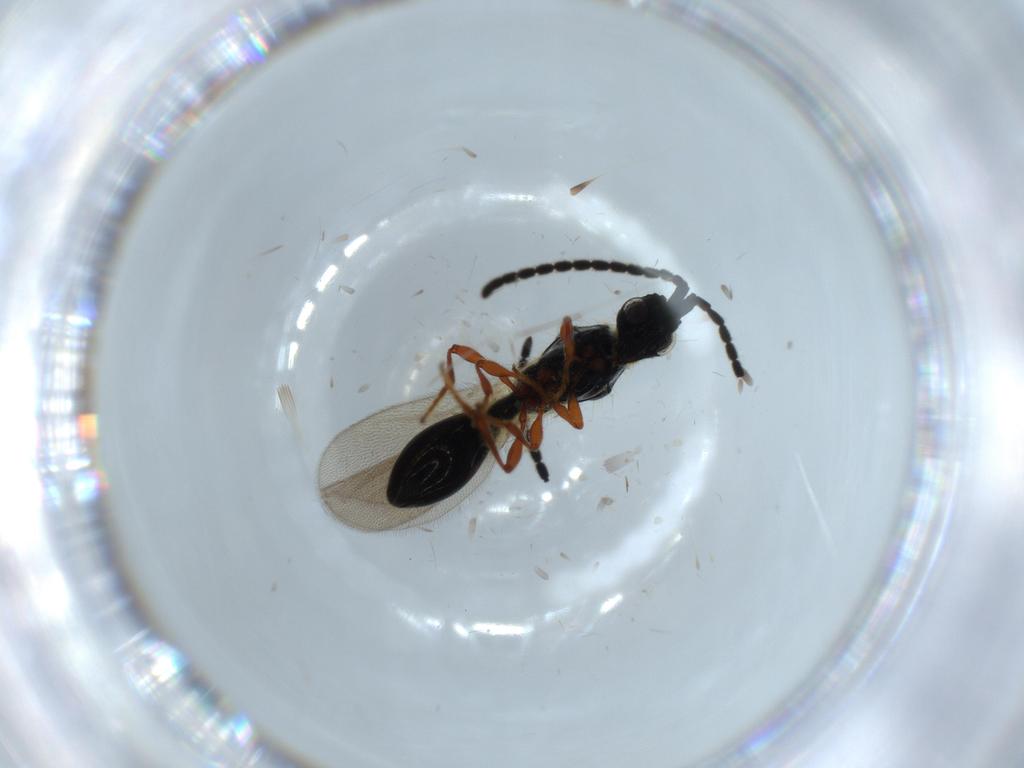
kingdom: Animalia
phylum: Arthropoda
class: Insecta
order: Hymenoptera
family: Diapriidae
